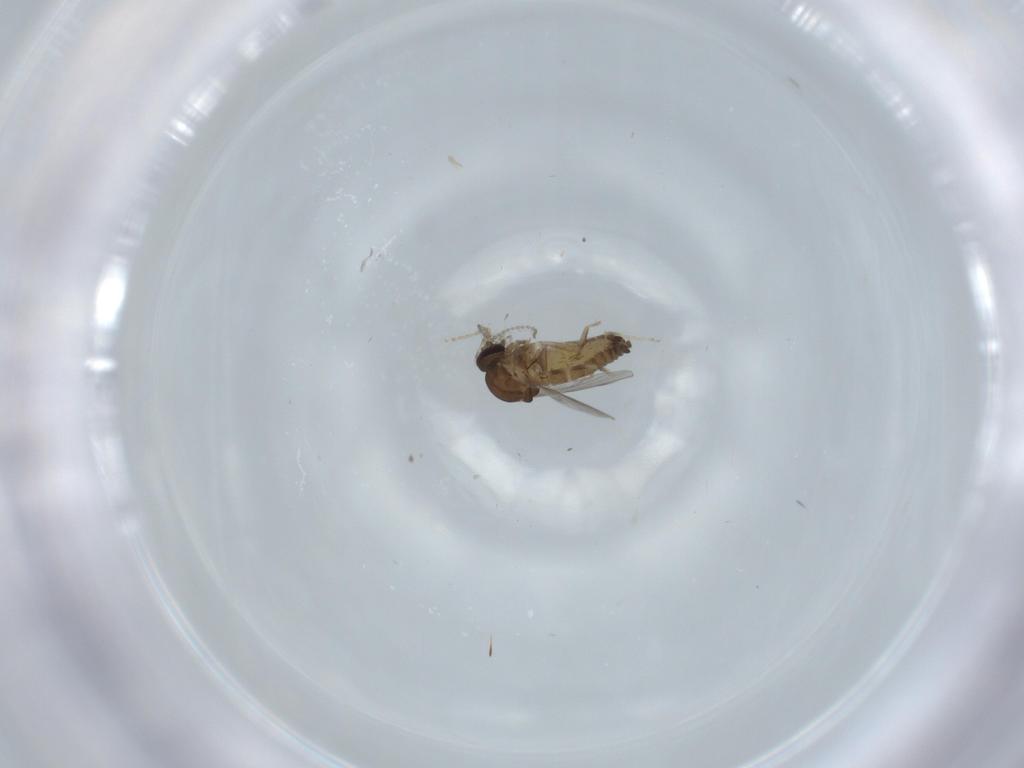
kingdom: Animalia
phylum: Arthropoda
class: Insecta
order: Diptera
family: Ceratopogonidae
